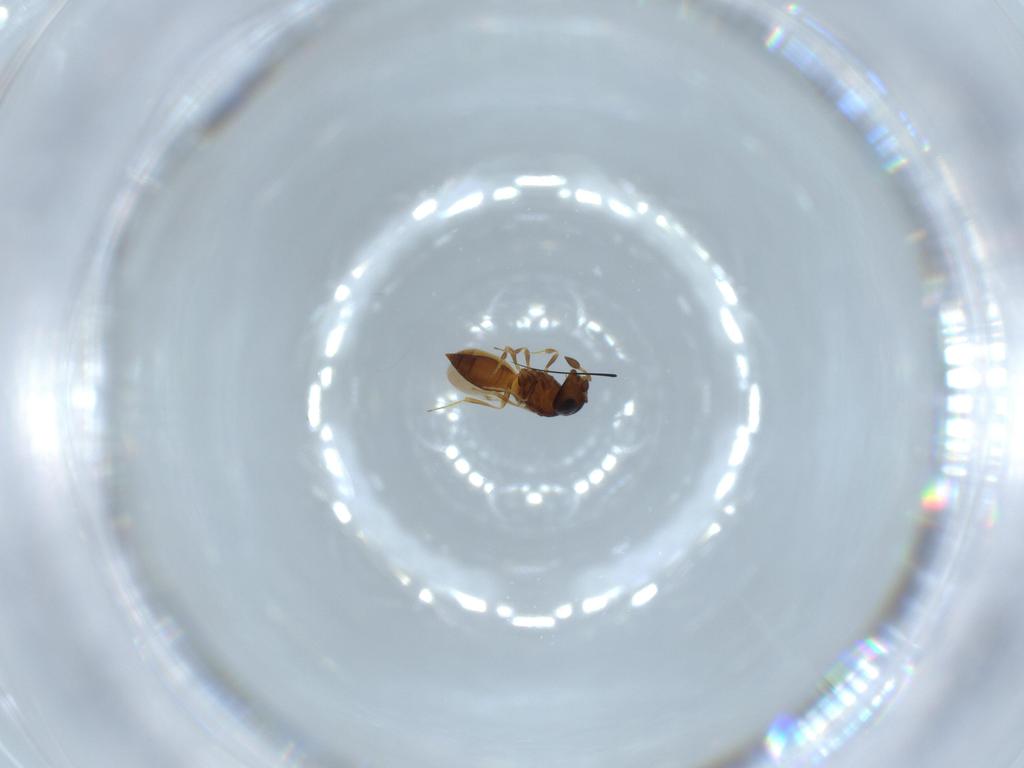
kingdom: Animalia
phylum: Arthropoda
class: Insecta
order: Hymenoptera
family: Scelionidae
